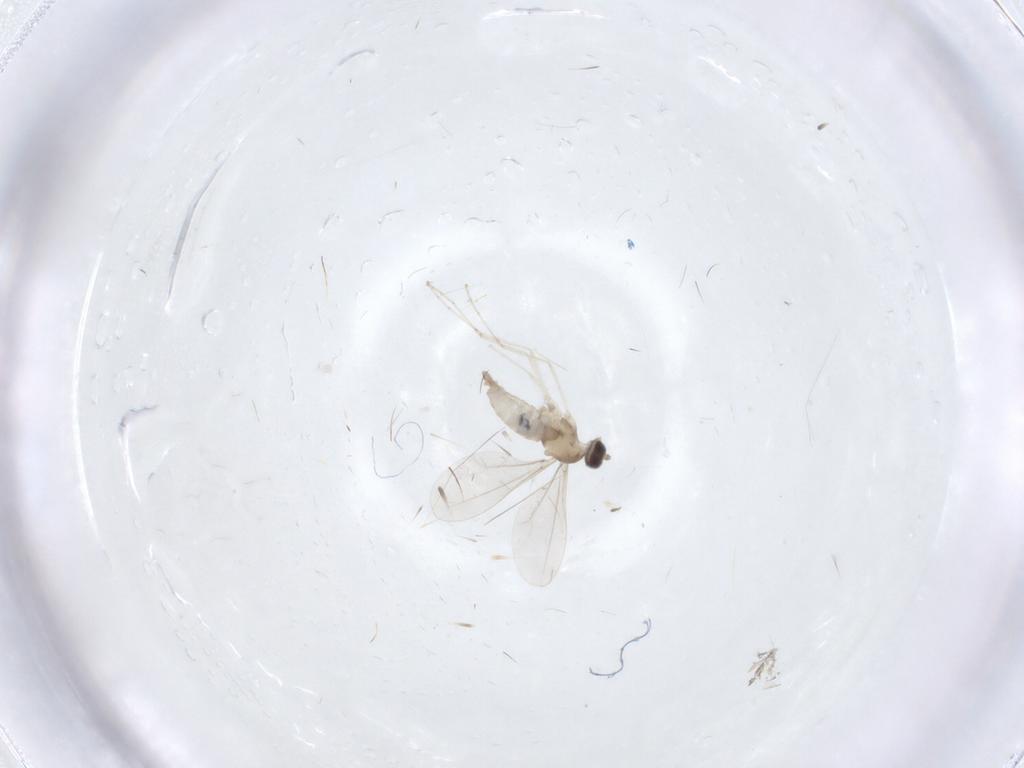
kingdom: Animalia
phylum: Arthropoda
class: Insecta
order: Diptera
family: Cecidomyiidae
